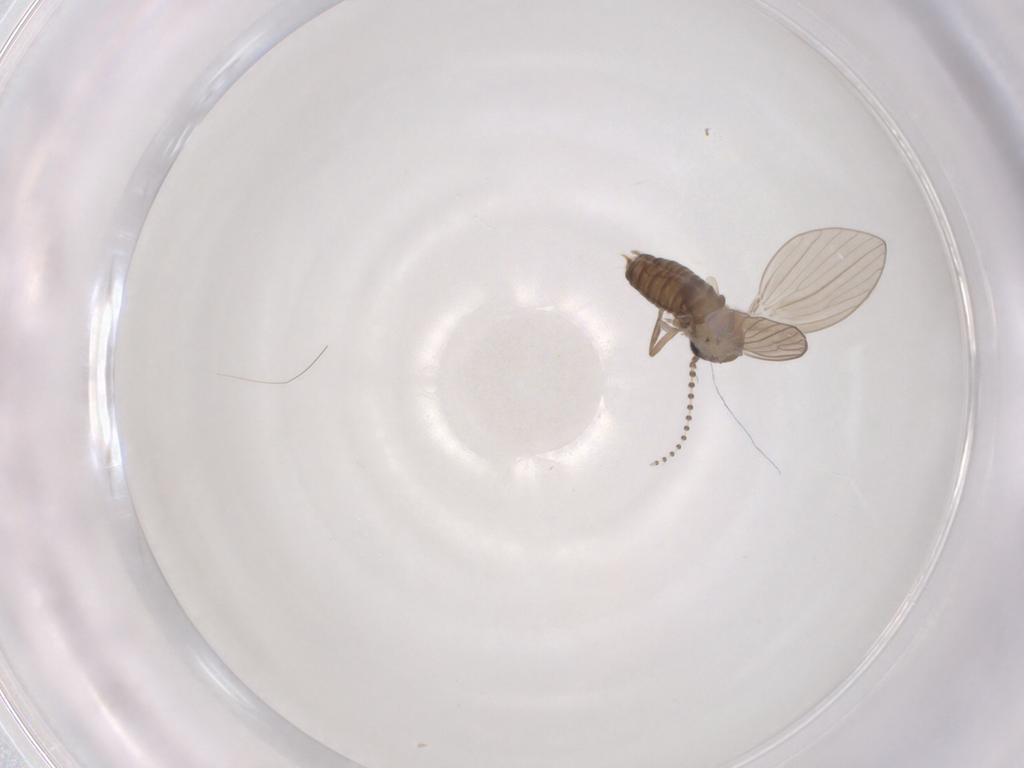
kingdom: Animalia
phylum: Arthropoda
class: Insecta
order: Diptera
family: Psychodidae
